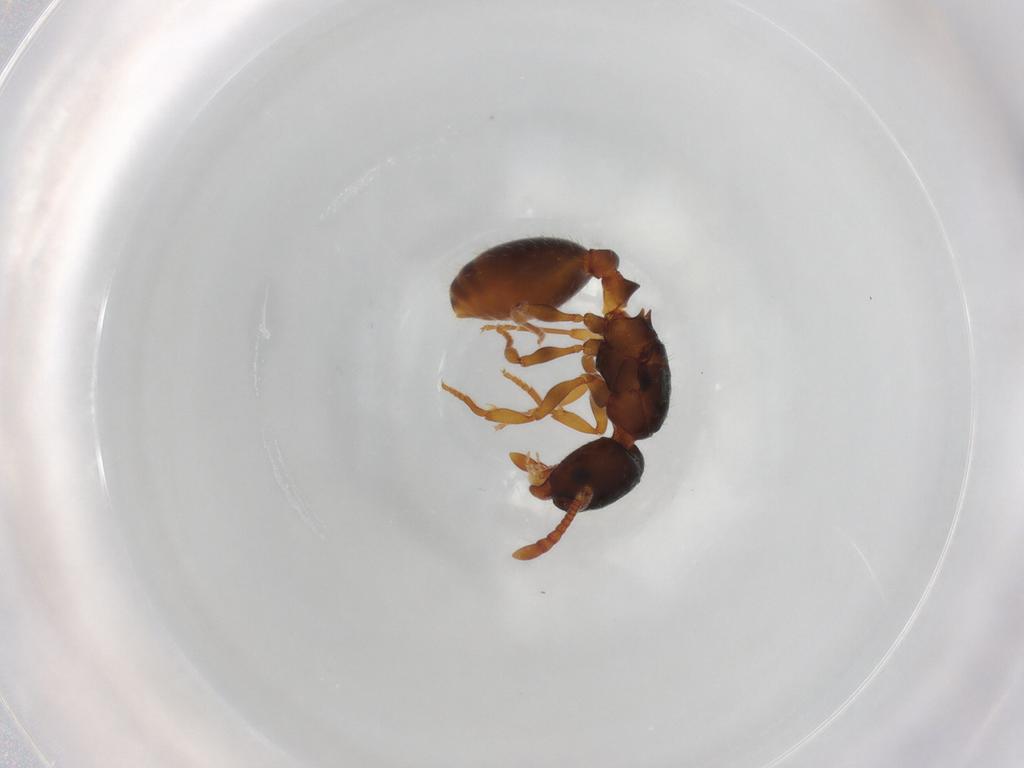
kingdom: Animalia
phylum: Arthropoda
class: Insecta
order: Hymenoptera
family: Formicidae
